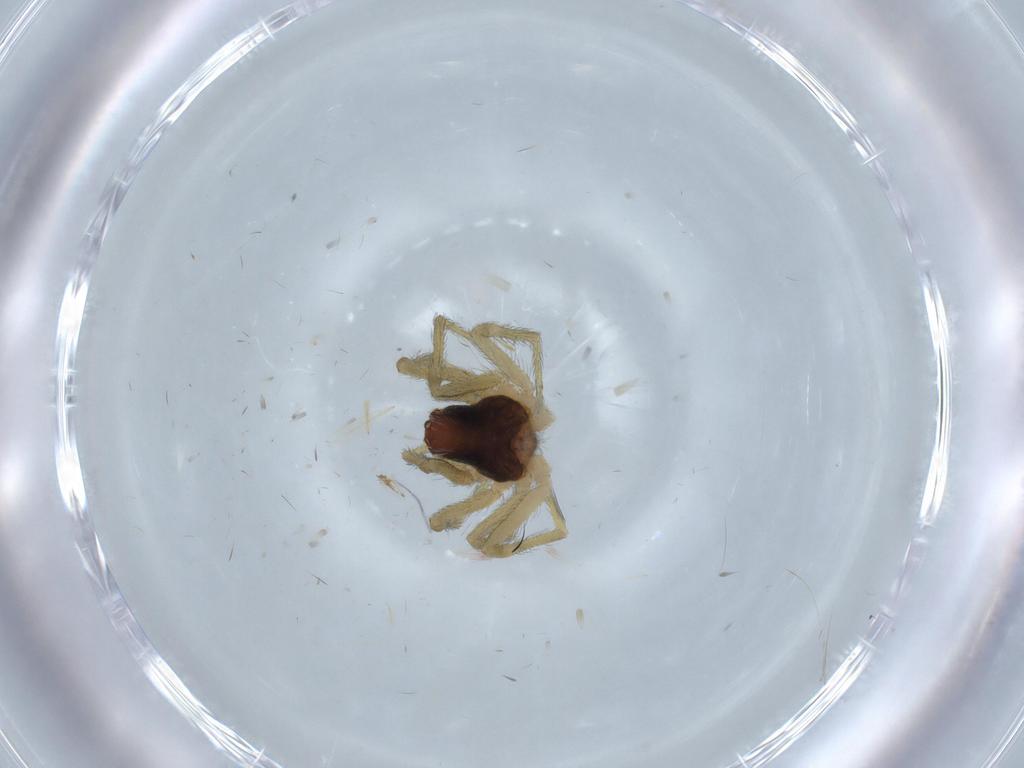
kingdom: Animalia
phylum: Arthropoda
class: Arachnida
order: Araneae
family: Dictynidae
